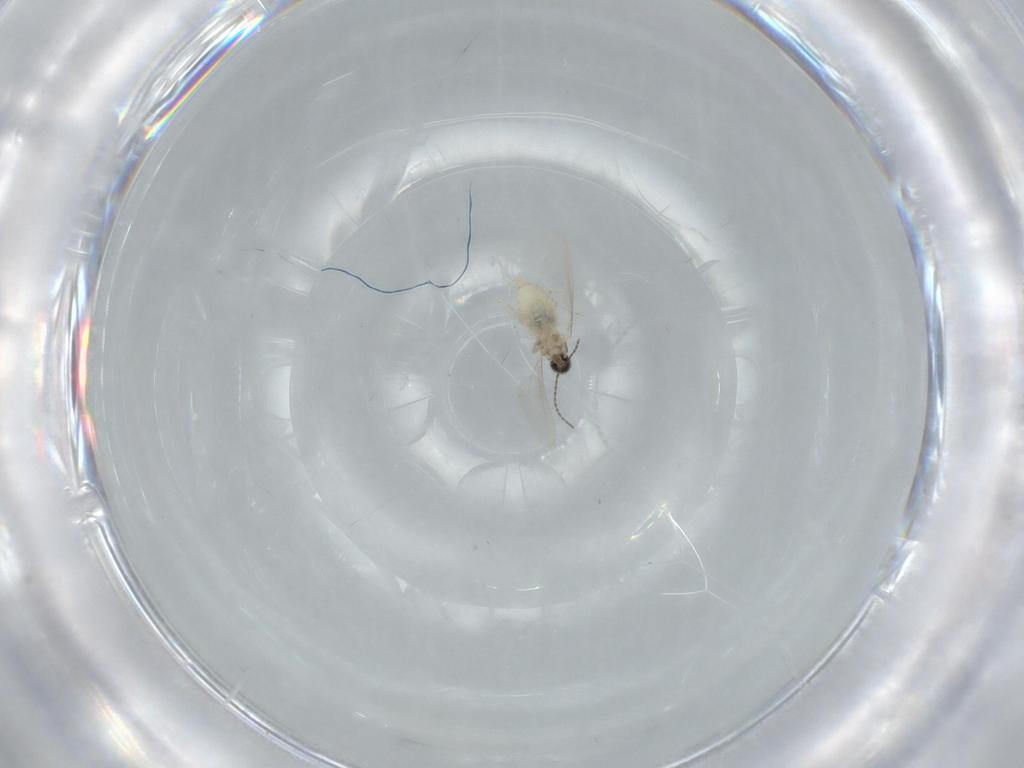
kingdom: Animalia
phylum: Arthropoda
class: Insecta
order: Diptera
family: Cecidomyiidae
